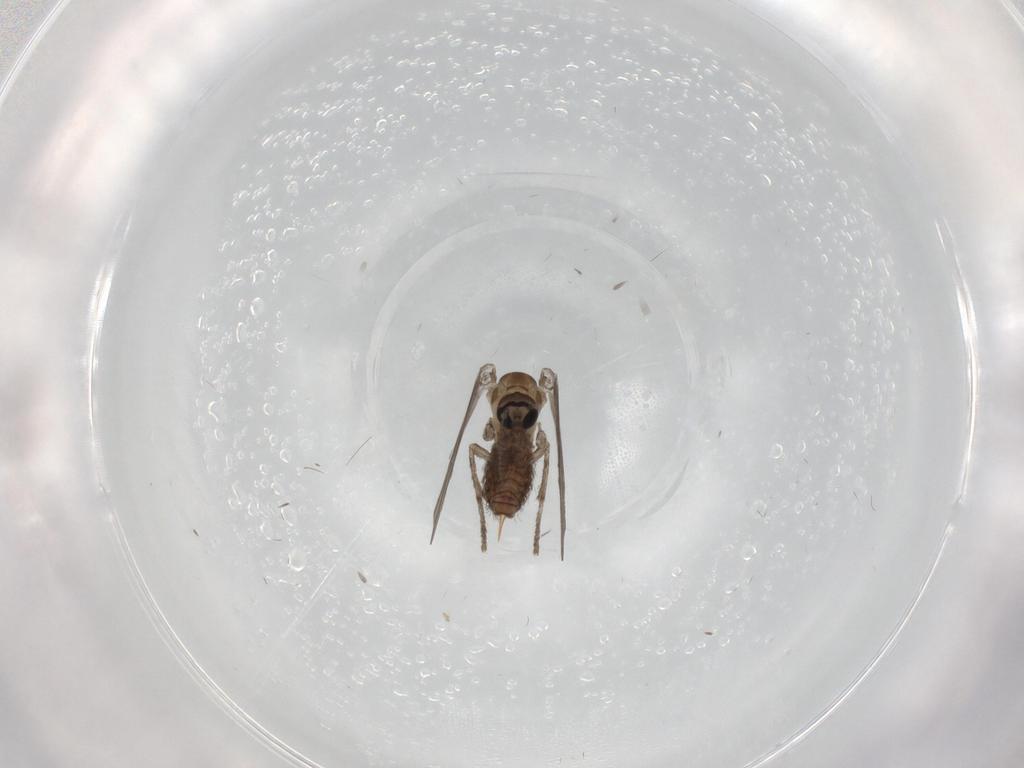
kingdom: Animalia
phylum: Arthropoda
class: Insecta
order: Diptera
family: Psychodidae
